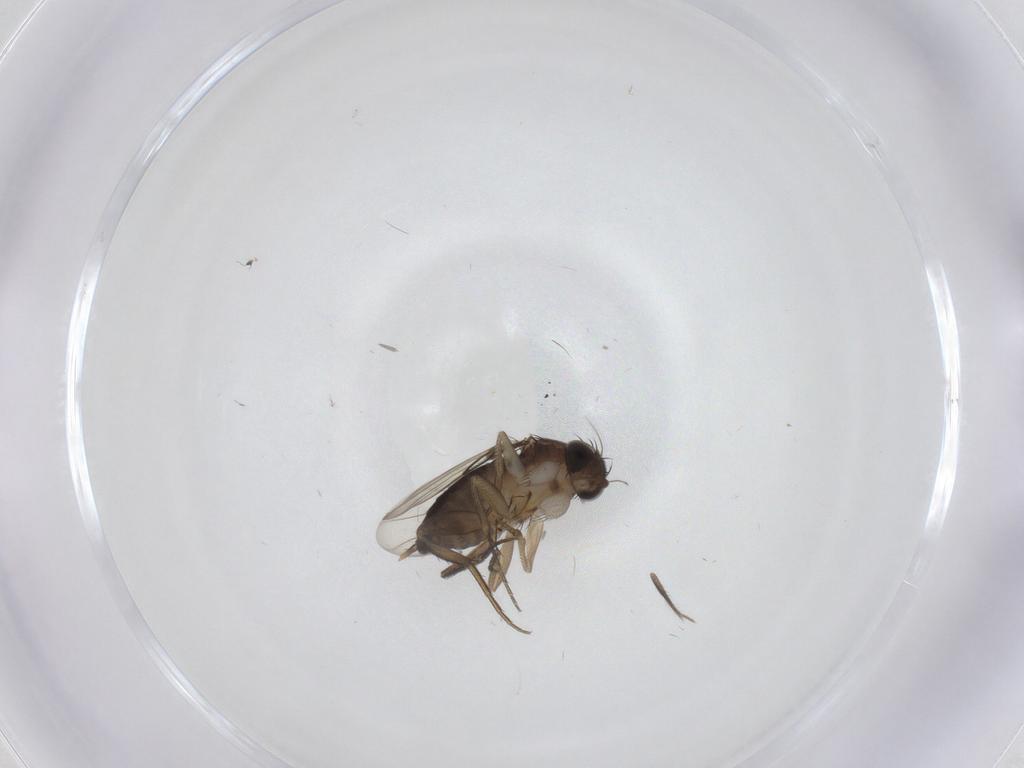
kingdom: Animalia
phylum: Arthropoda
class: Insecta
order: Diptera
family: Phoridae
